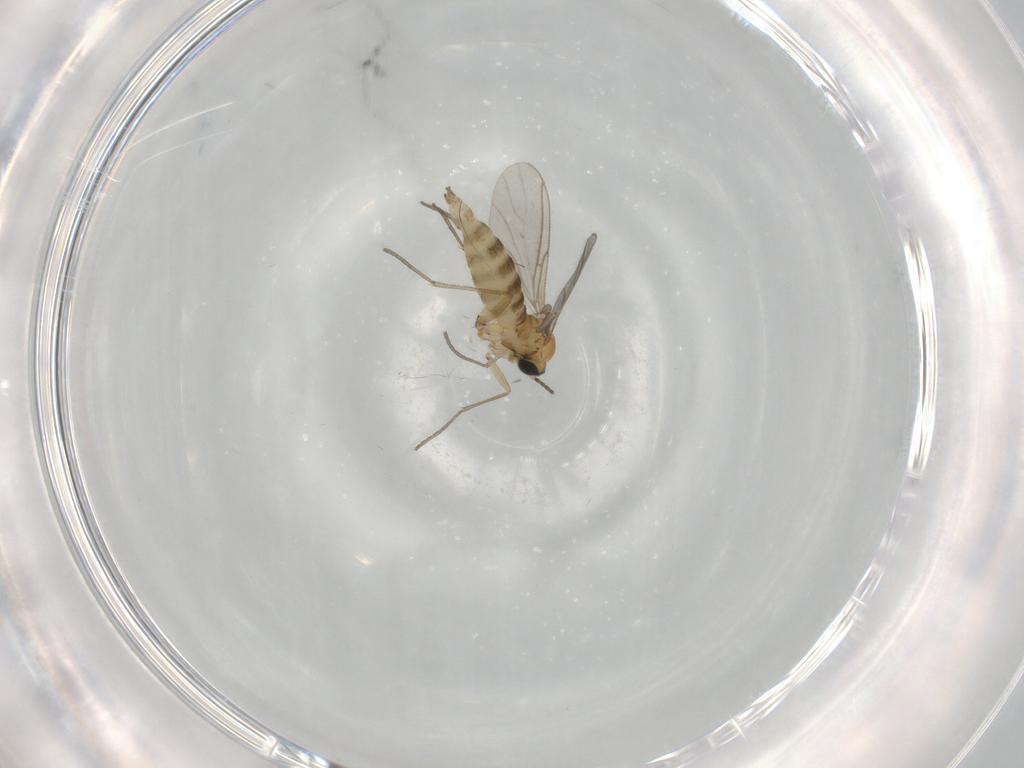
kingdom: Animalia
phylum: Arthropoda
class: Insecta
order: Diptera
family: Sciaridae
